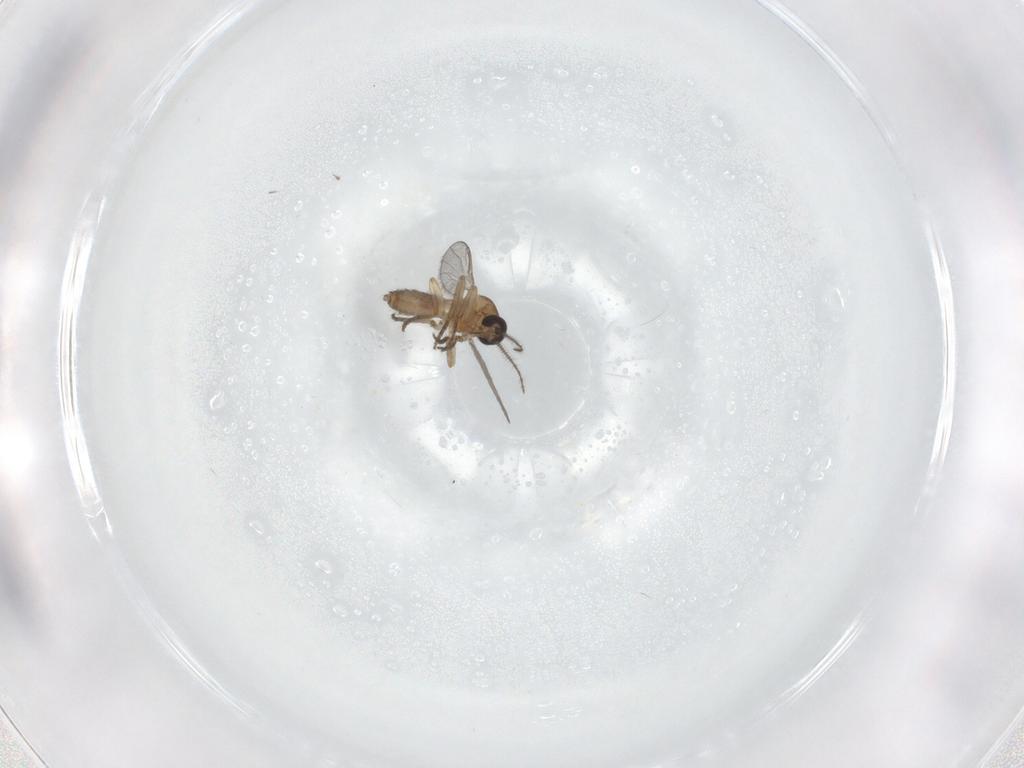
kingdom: Animalia
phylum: Arthropoda
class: Insecta
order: Diptera
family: Ceratopogonidae
